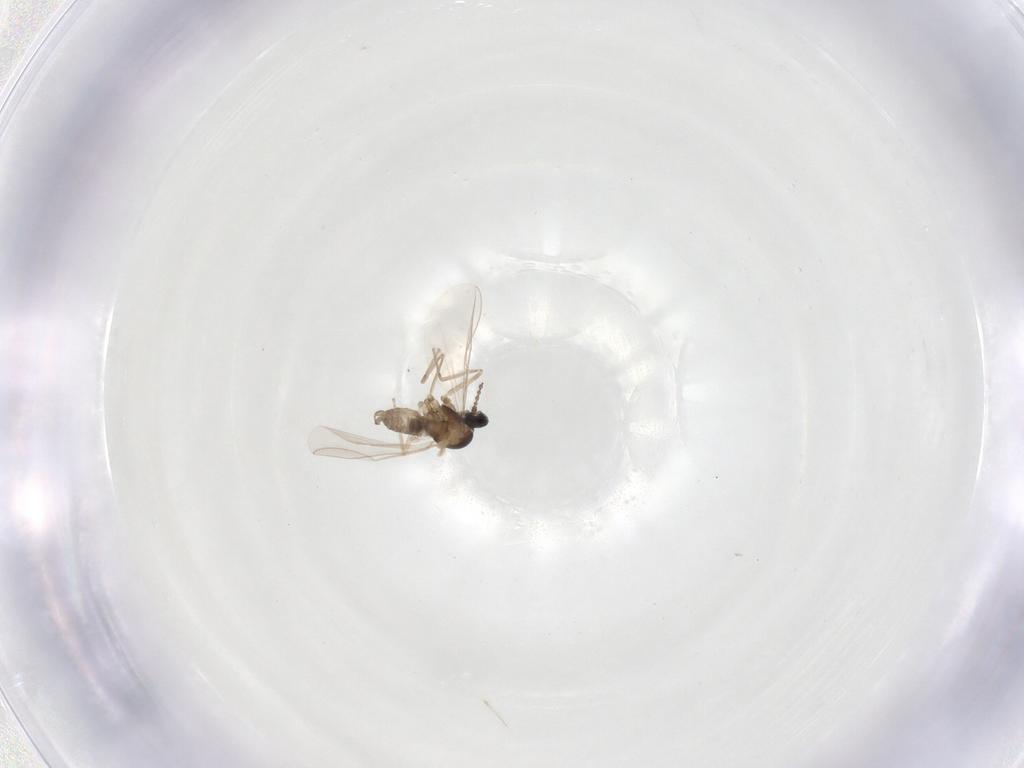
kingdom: Animalia
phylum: Arthropoda
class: Insecta
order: Diptera
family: Cecidomyiidae
